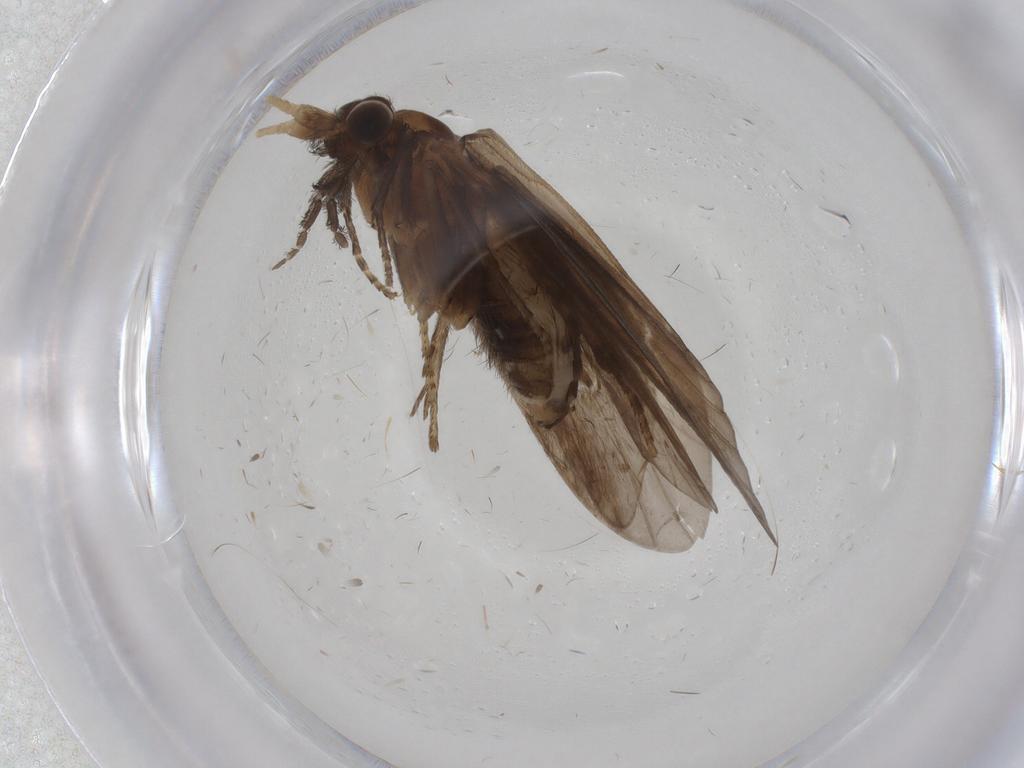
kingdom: Animalia
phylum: Arthropoda
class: Insecta
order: Trichoptera
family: Helicopsychidae
